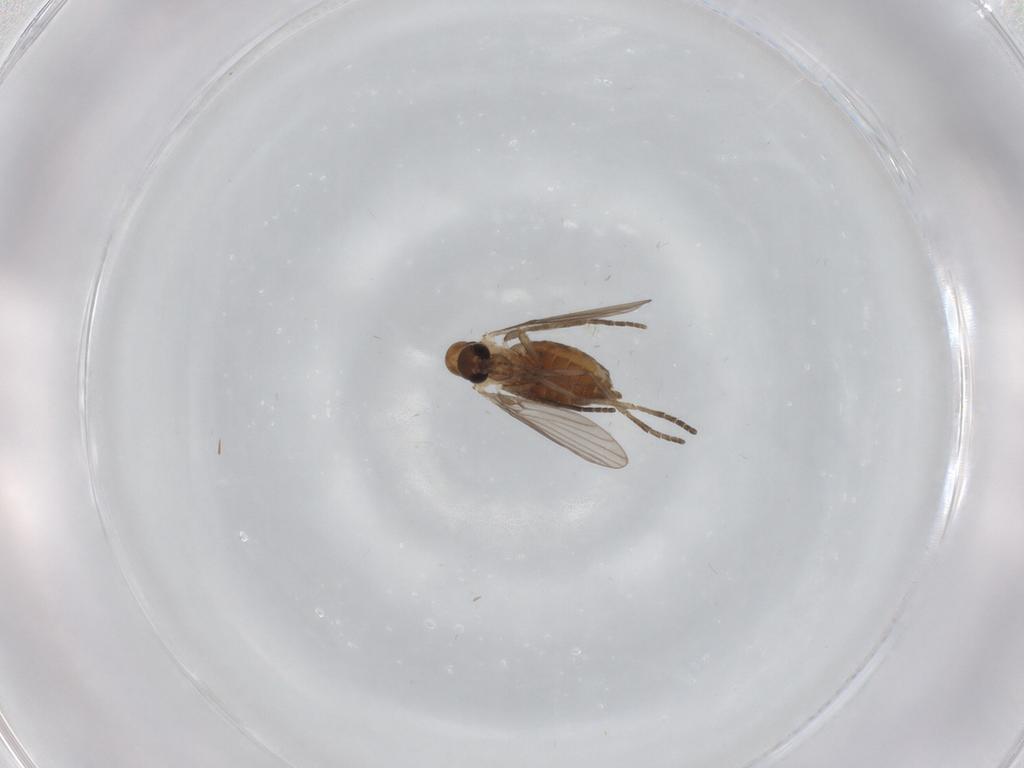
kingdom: Animalia
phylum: Arthropoda
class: Insecta
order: Diptera
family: Psychodidae
